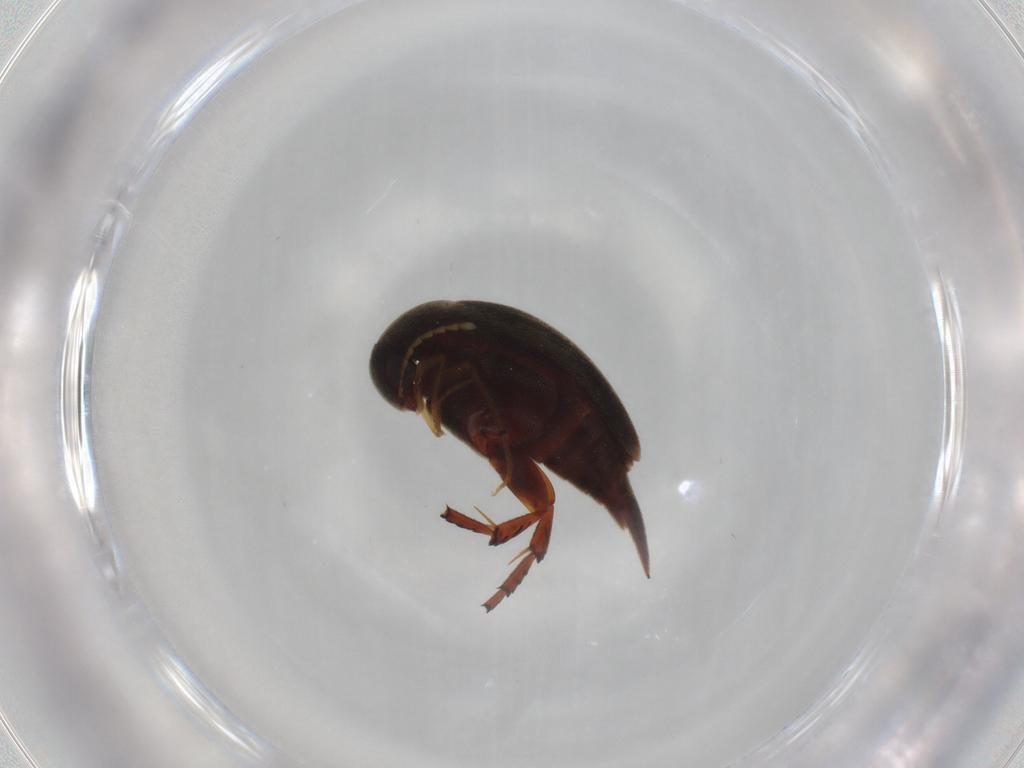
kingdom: Animalia
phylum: Arthropoda
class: Insecta
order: Coleoptera
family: Mordellidae
